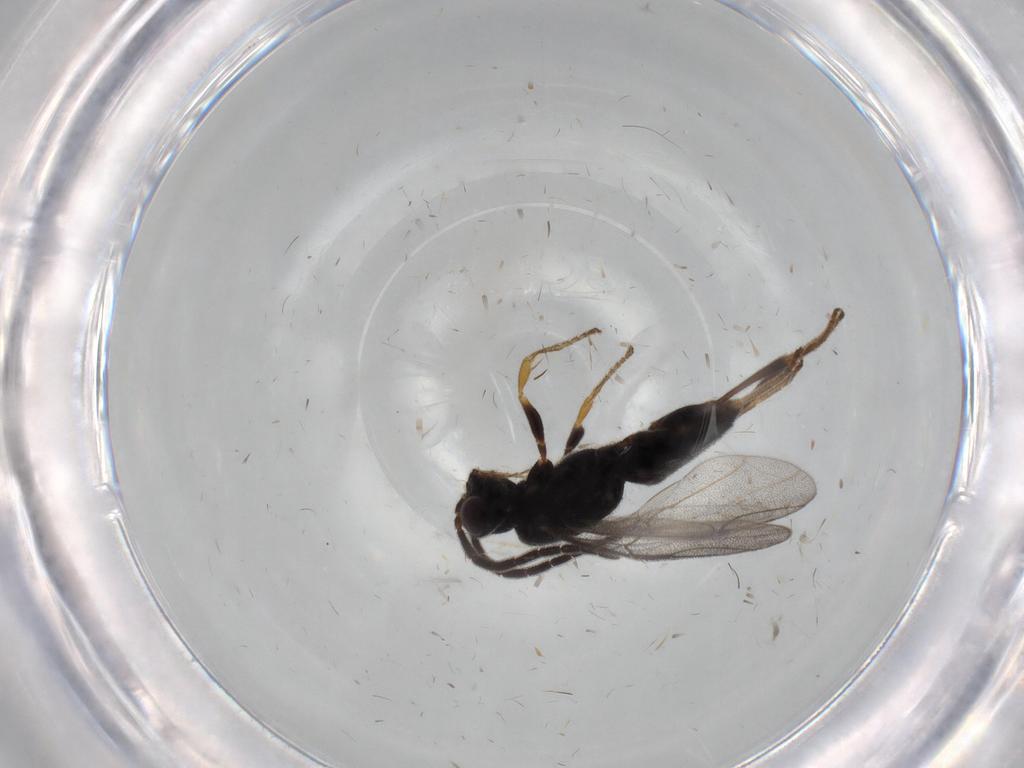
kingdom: Animalia
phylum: Arthropoda
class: Insecta
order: Hymenoptera
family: Dryinidae
